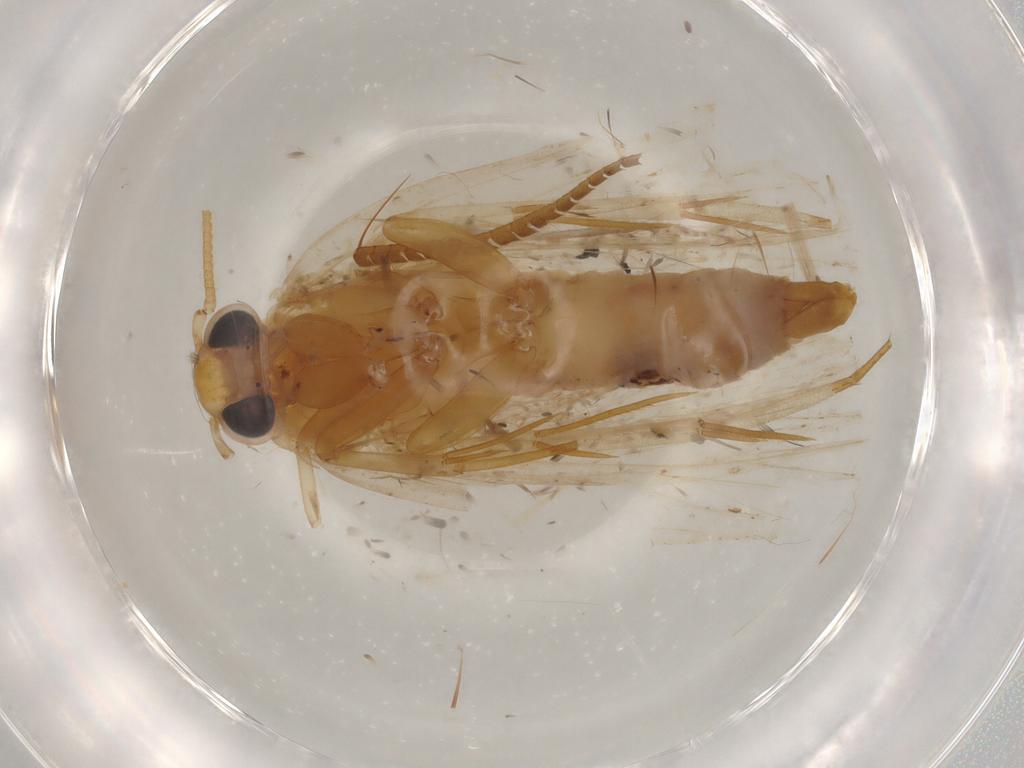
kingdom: Animalia
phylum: Arthropoda
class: Insecta
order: Lepidoptera
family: Depressariidae
